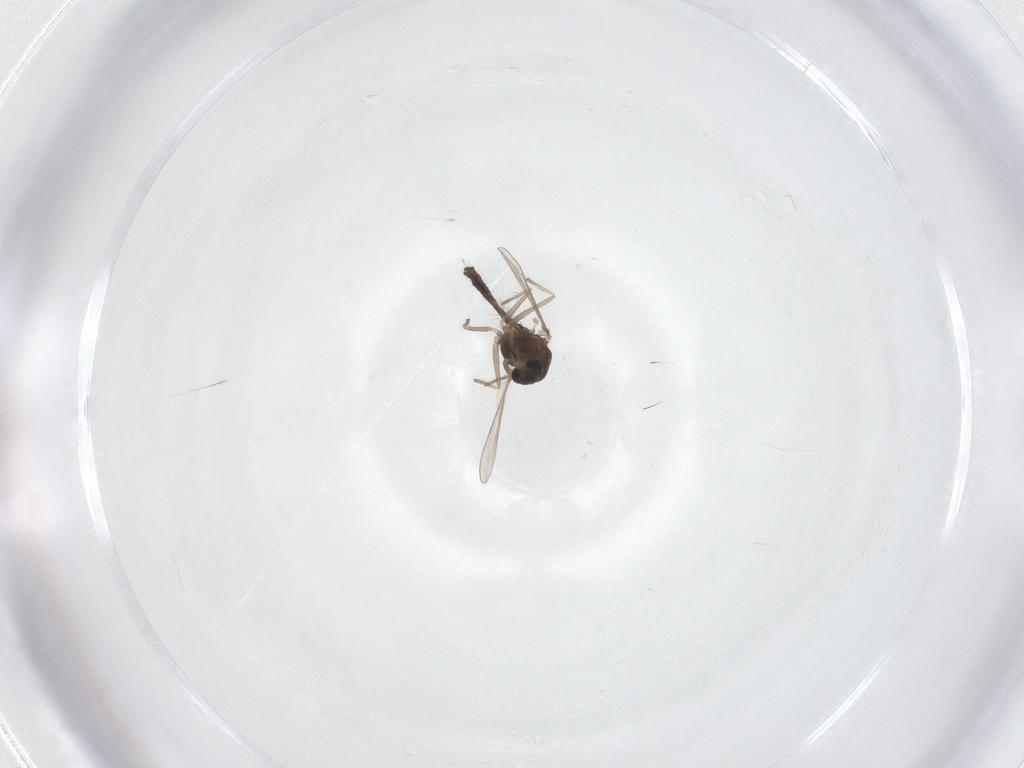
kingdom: Animalia
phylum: Arthropoda
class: Insecta
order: Diptera
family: Chironomidae
